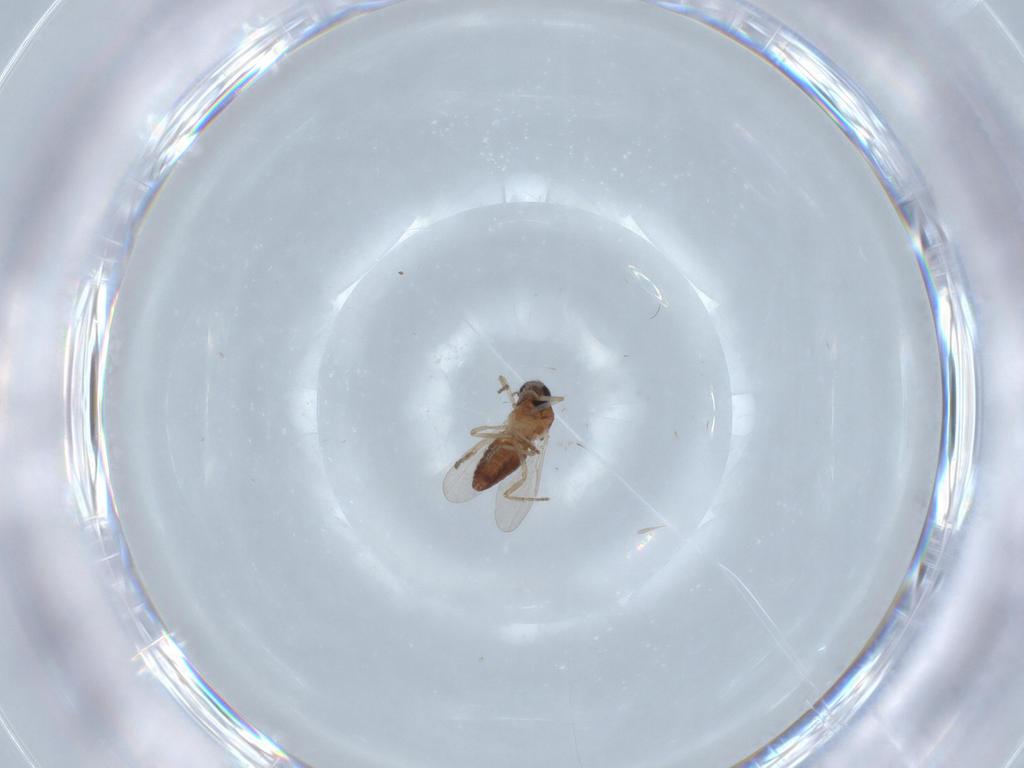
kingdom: Animalia
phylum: Arthropoda
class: Insecta
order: Diptera
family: Ceratopogonidae
